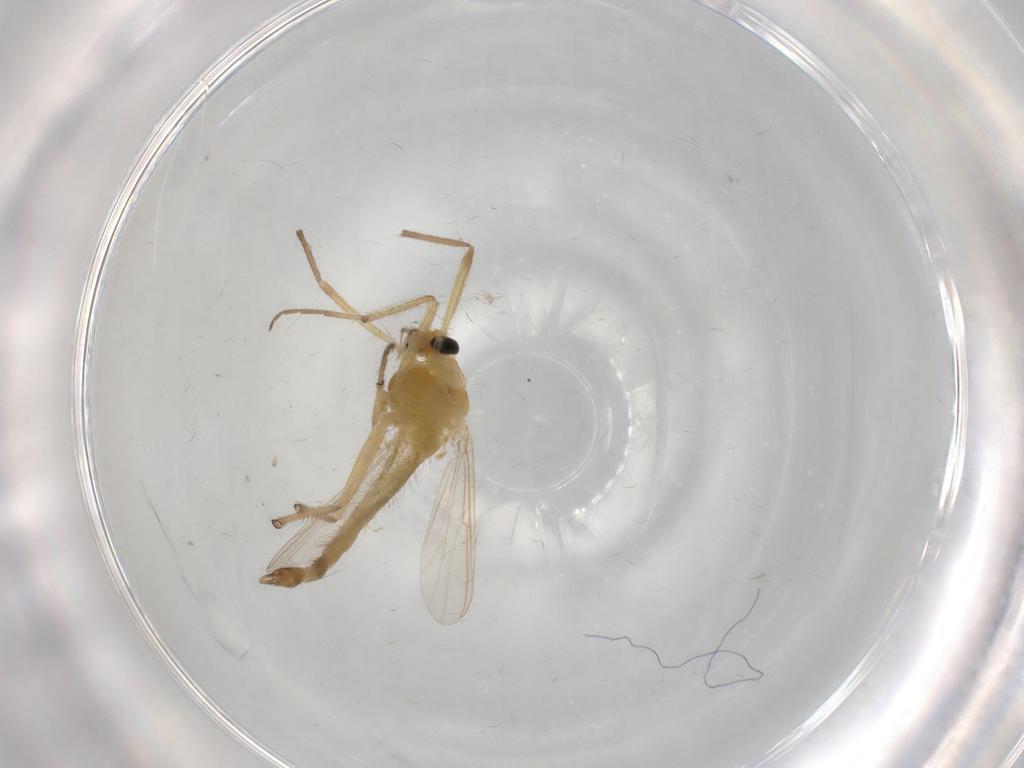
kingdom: Animalia
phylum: Arthropoda
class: Insecta
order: Diptera
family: Chironomidae
